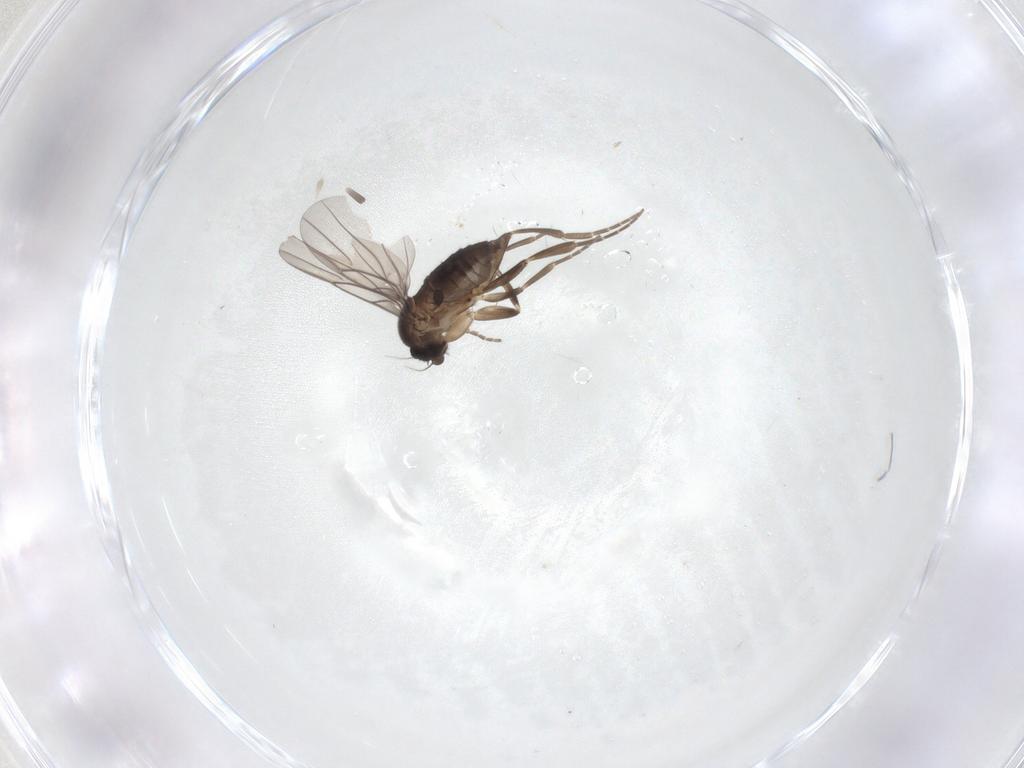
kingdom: Animalia
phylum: Arthropoda
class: Insecta
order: Diptera
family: Phoridae
